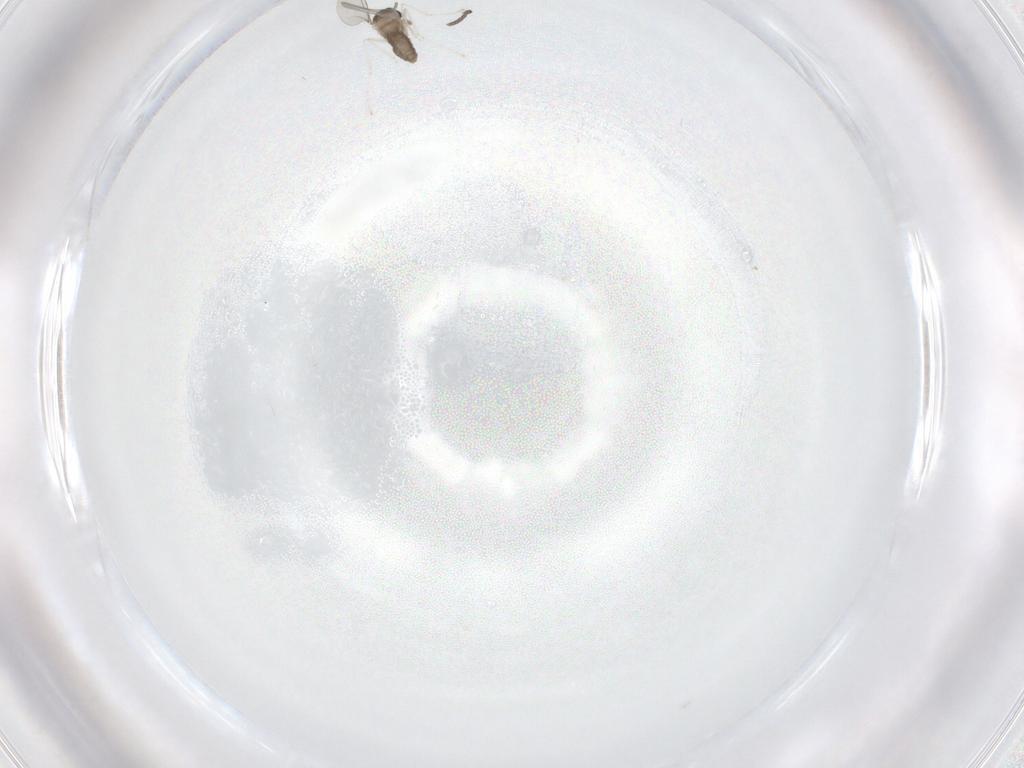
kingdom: Animalia
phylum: Arthropoda
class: Insecta
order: Diptera
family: Cecidomyiidae
